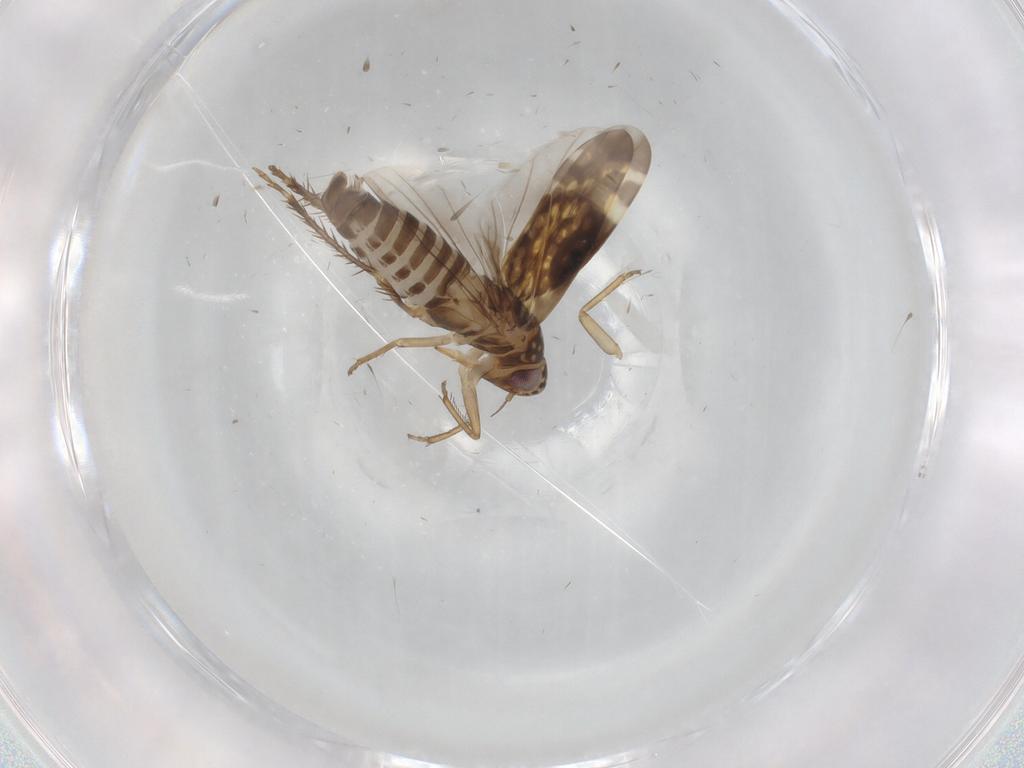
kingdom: Animalia
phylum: Arthropoda
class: Insecta
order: Hemiptera
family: Cicadellidae
